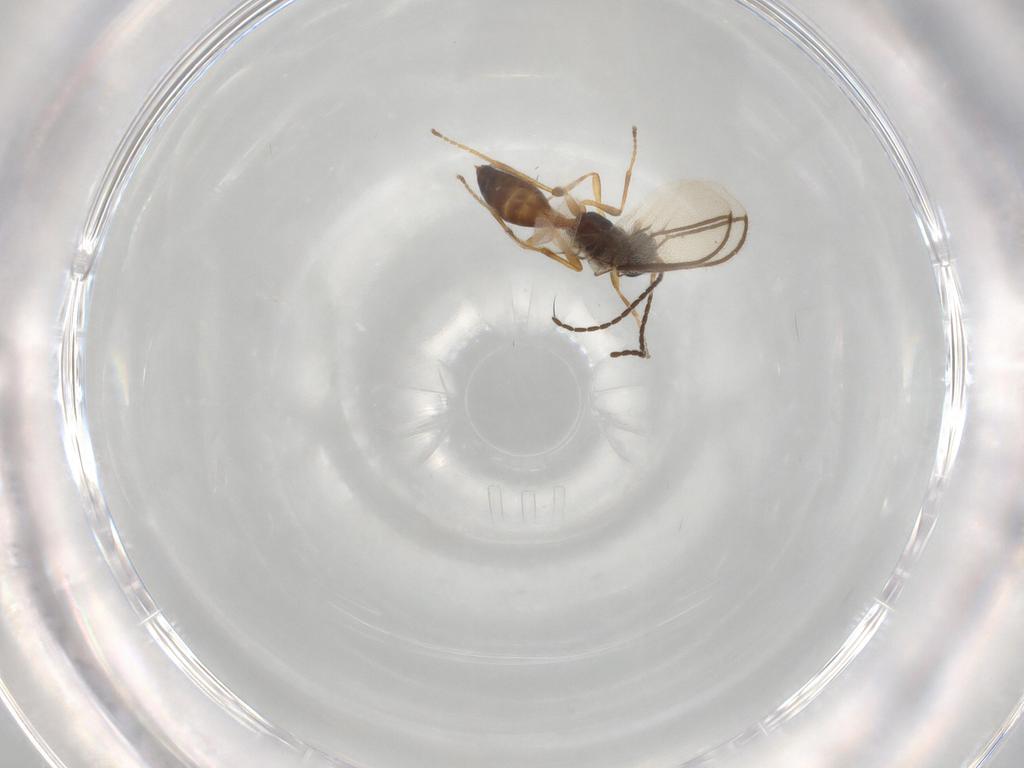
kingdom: Animalia
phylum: Arthropoda
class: Insecta
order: Hymenoptera
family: Braconidae
